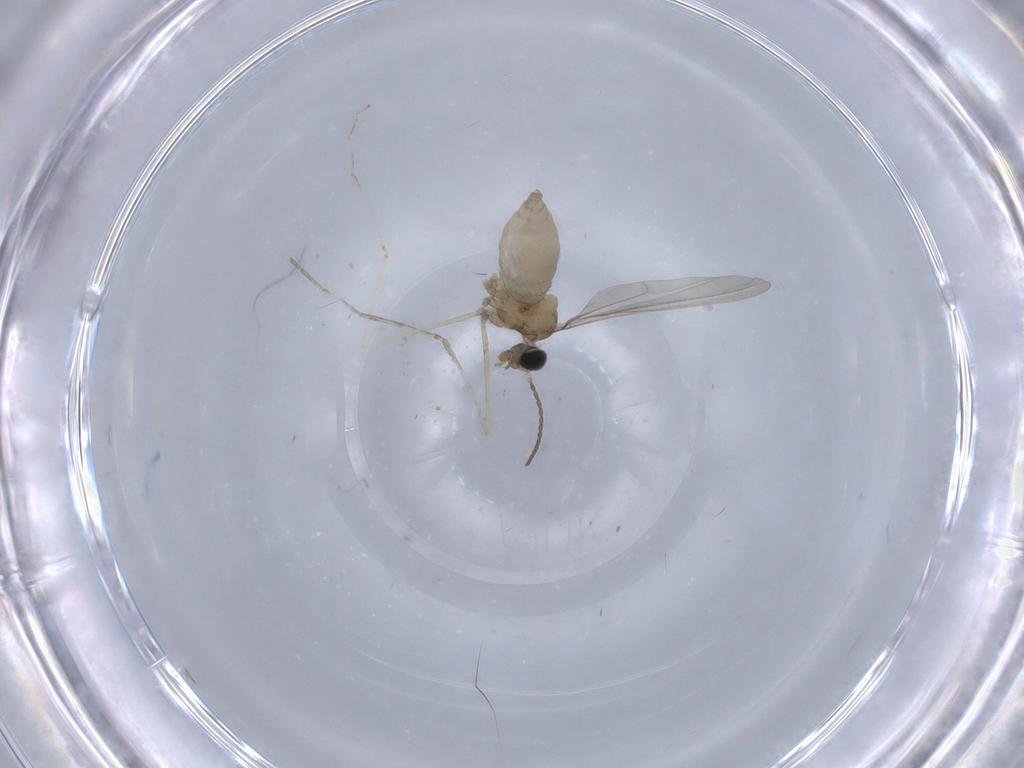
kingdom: Animalia
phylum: Arthropoda
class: Insecta
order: Diptera
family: Cecidomyiidae
